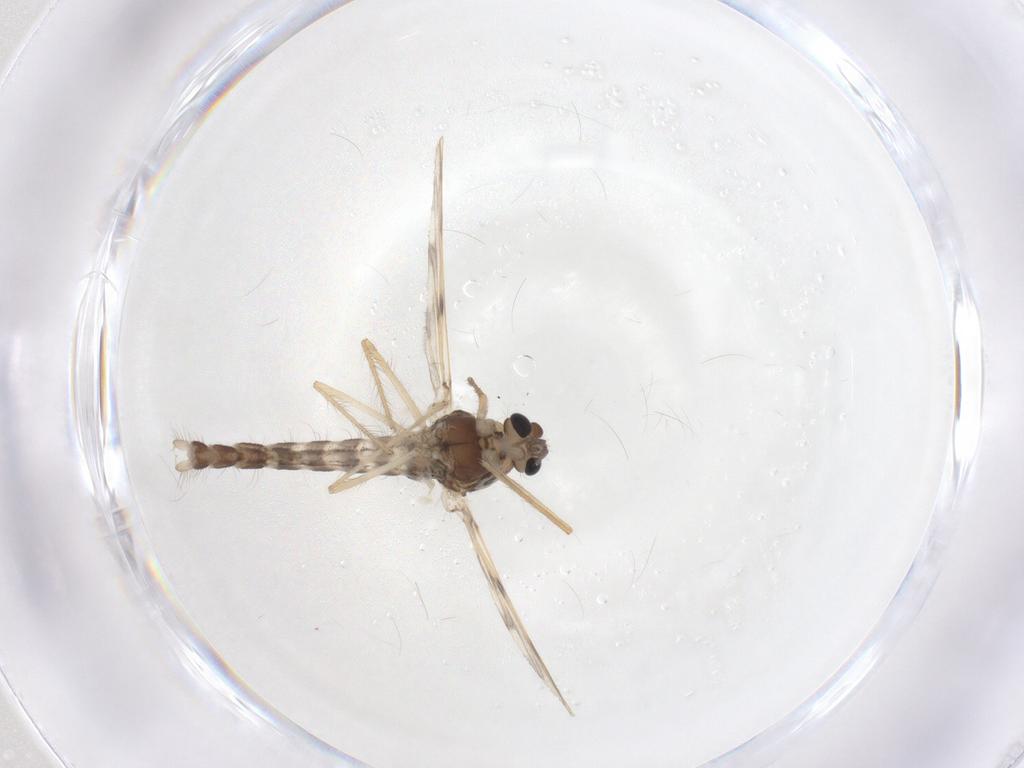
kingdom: Animalia
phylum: Arthropoda
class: Insecta
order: Diptera
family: Chironomidae
